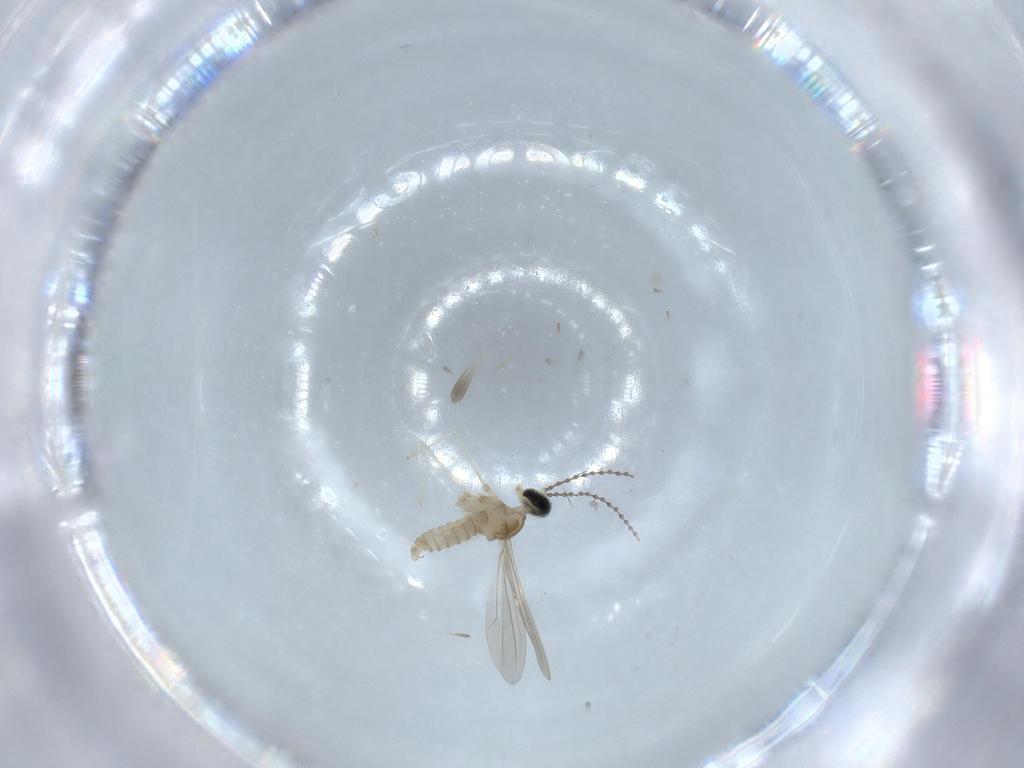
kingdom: Animalia
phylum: Arthropoda
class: Insecta
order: Diptera
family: Cecidomyiidae
